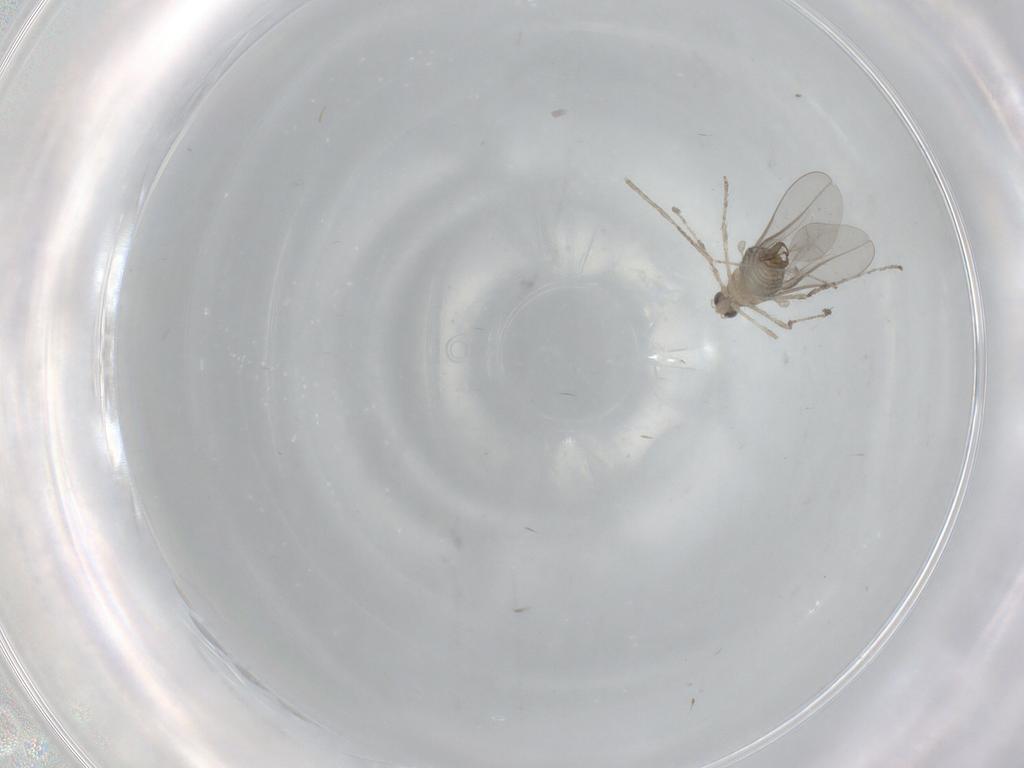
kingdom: Animalia
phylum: Arthropoda
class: Insecta
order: Diptera
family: Cecidomyiidae
